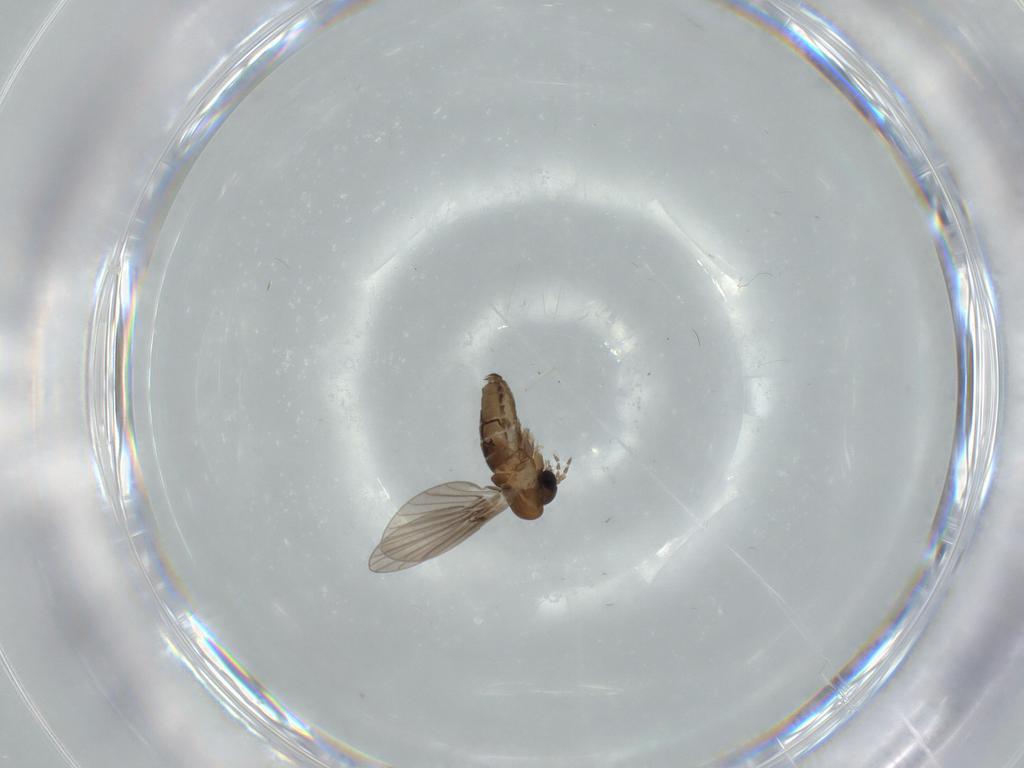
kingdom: Animalia
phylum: Arthropoda
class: Insecta
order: Diptera
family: Psychodidae
